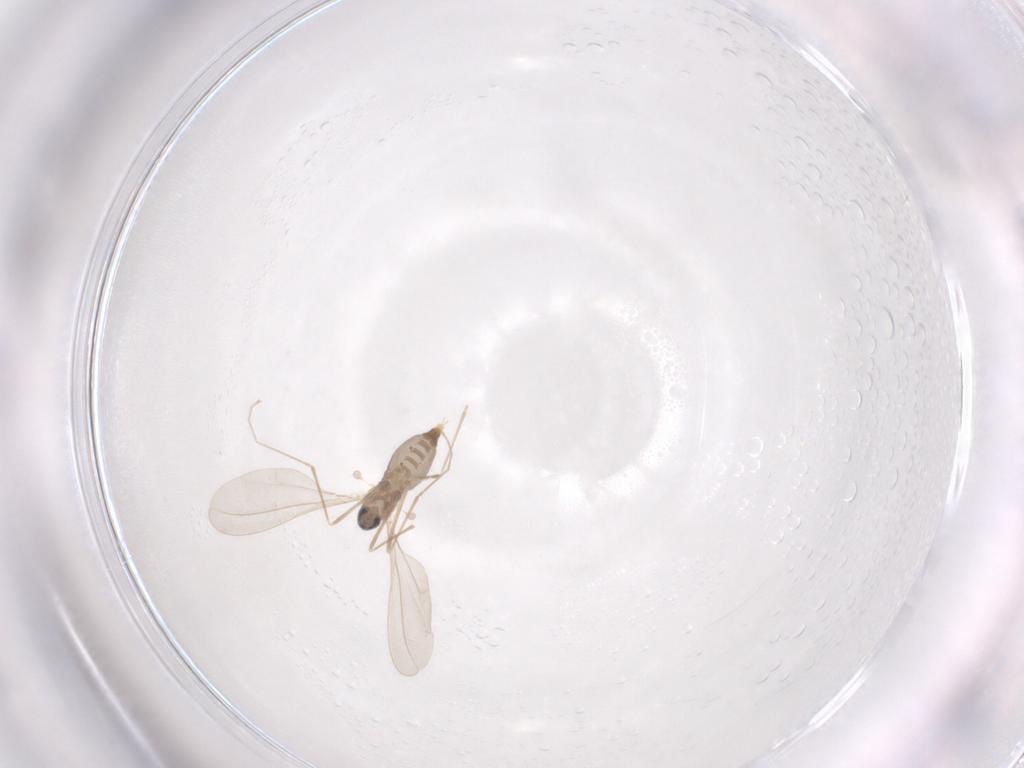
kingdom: Animalia
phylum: Arthropoda
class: Insecta
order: Diptera
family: Cecidomyiidae
